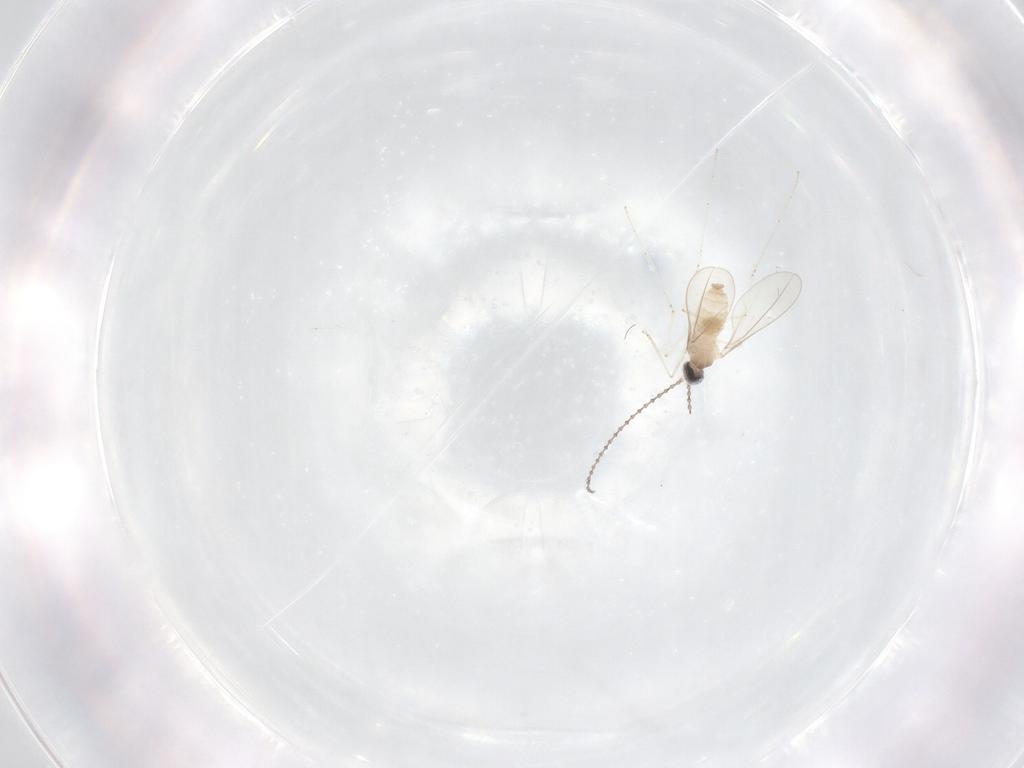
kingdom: Animalia
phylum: Arthropoda
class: Insecta
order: Diptera
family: Cecidomyiidae
